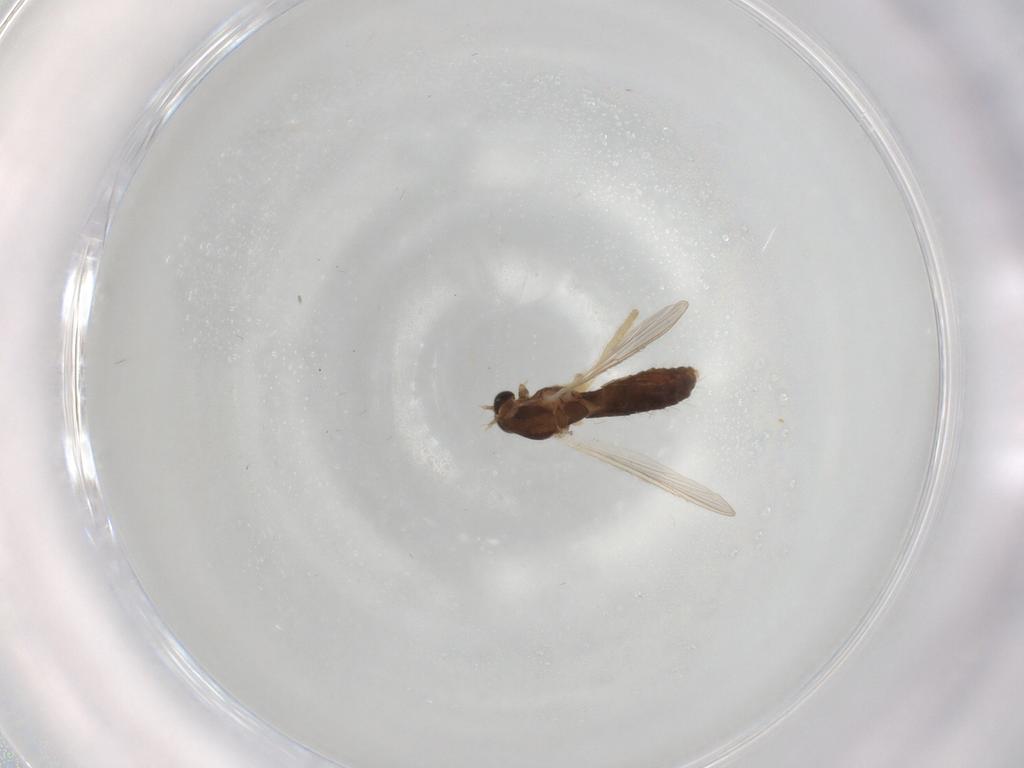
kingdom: Animalia
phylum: Arthropoda
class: Insecta
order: Diptera
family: Chironomidae
